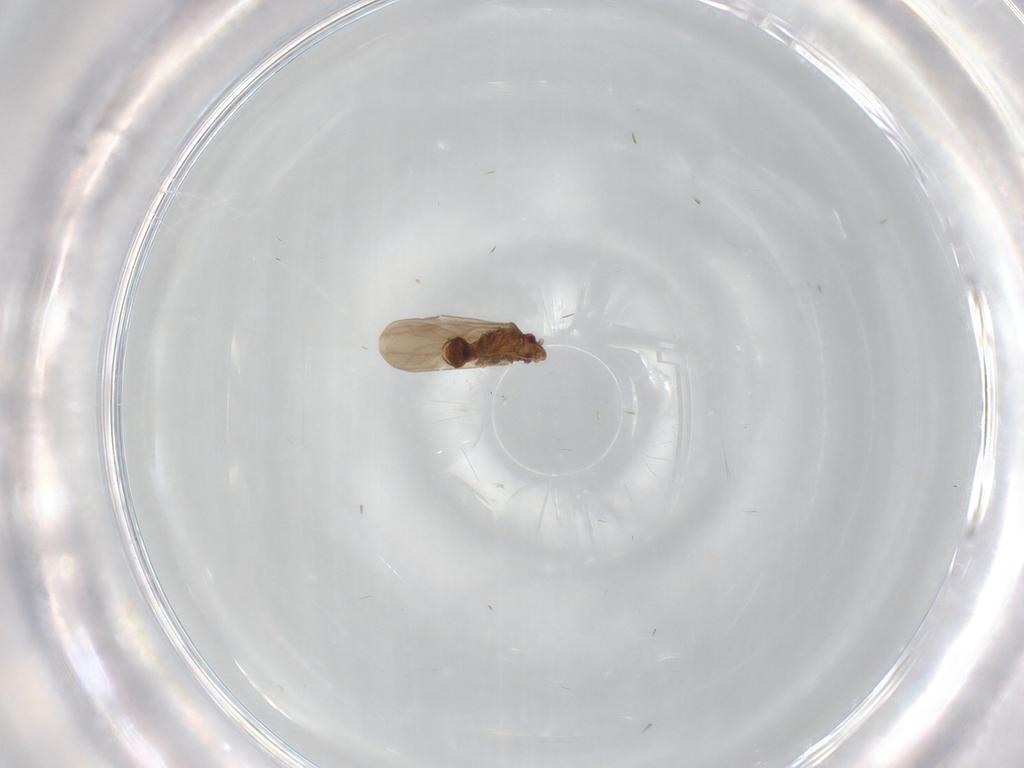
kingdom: Animalia
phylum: Arthropoda
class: Insecta
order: Hemiptera
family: Ceratocombidae
